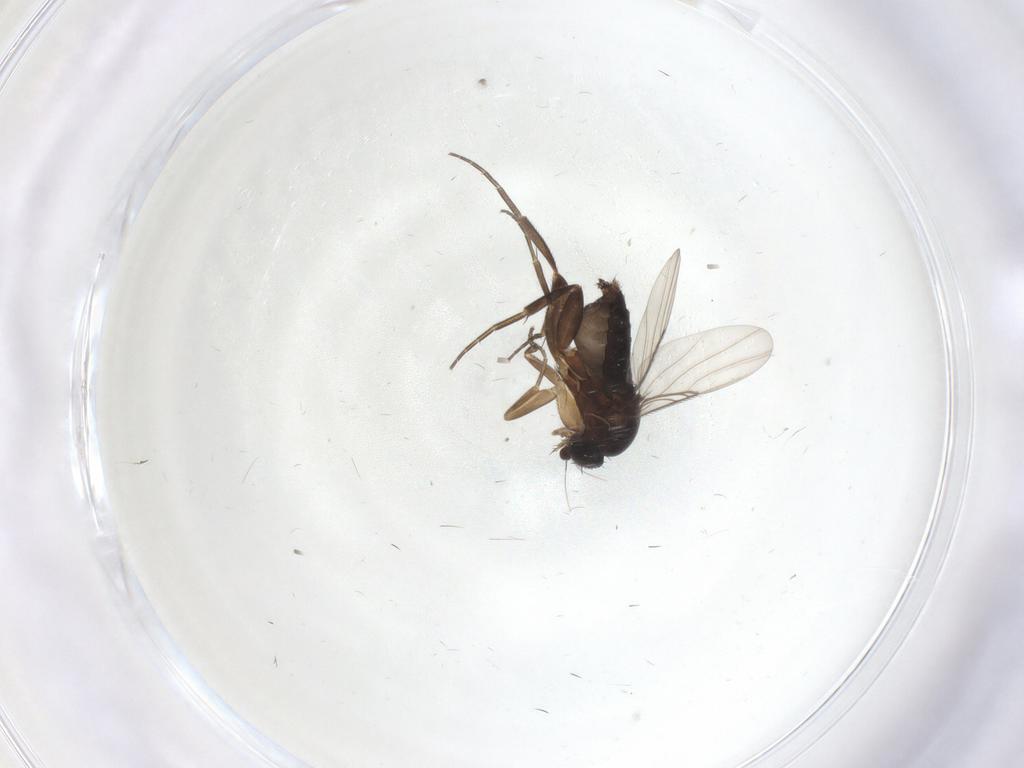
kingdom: Animalia
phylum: Arthropoda
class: Insecta
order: Diptera
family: Phoridae
